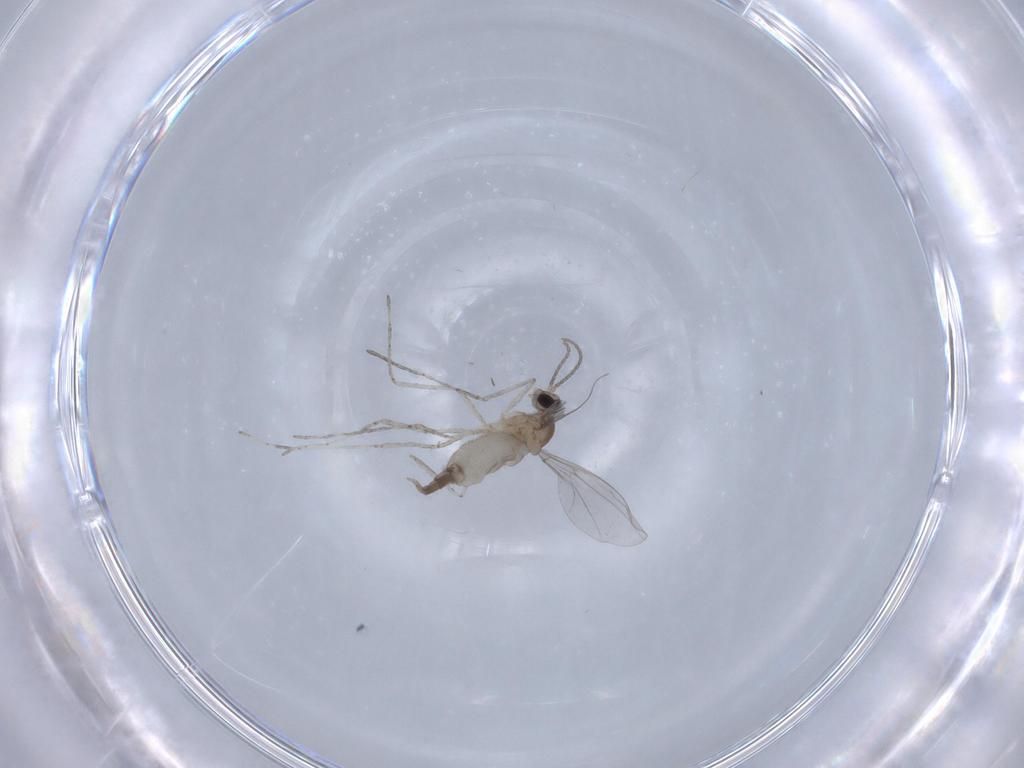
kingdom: Animalia
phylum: Arthropoda
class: Insecta
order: Diptera
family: Cecidomyiidae
